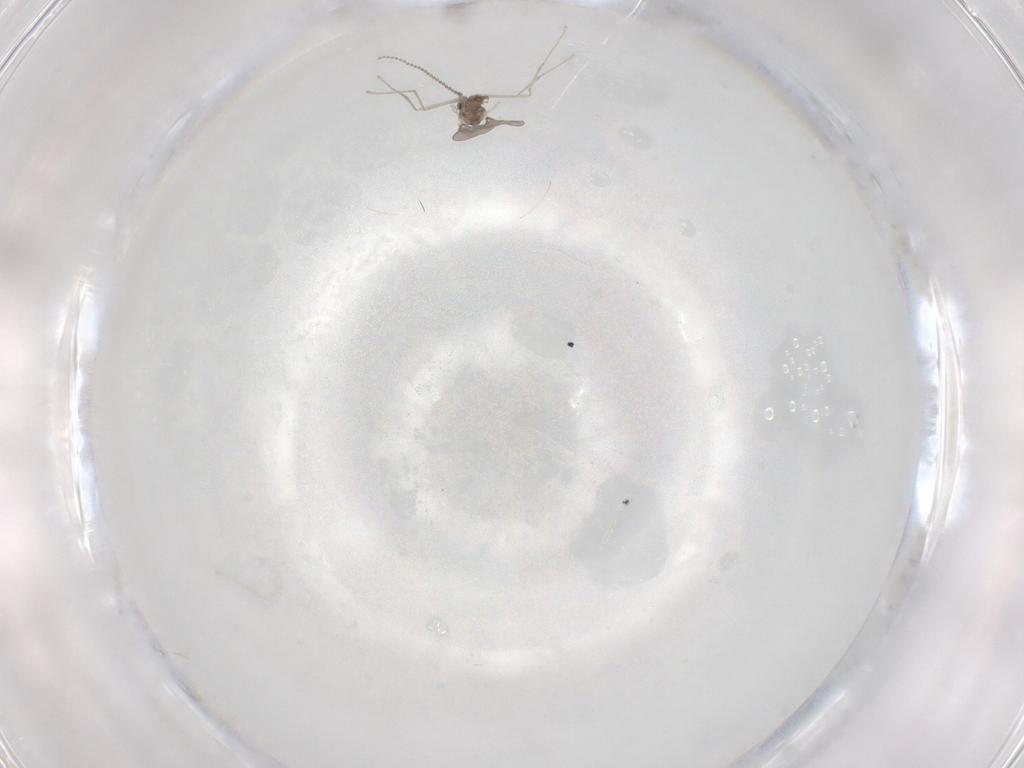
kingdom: Animalia
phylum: Arthropoda
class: Insecta
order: Diptera
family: Cecidomyiidae
